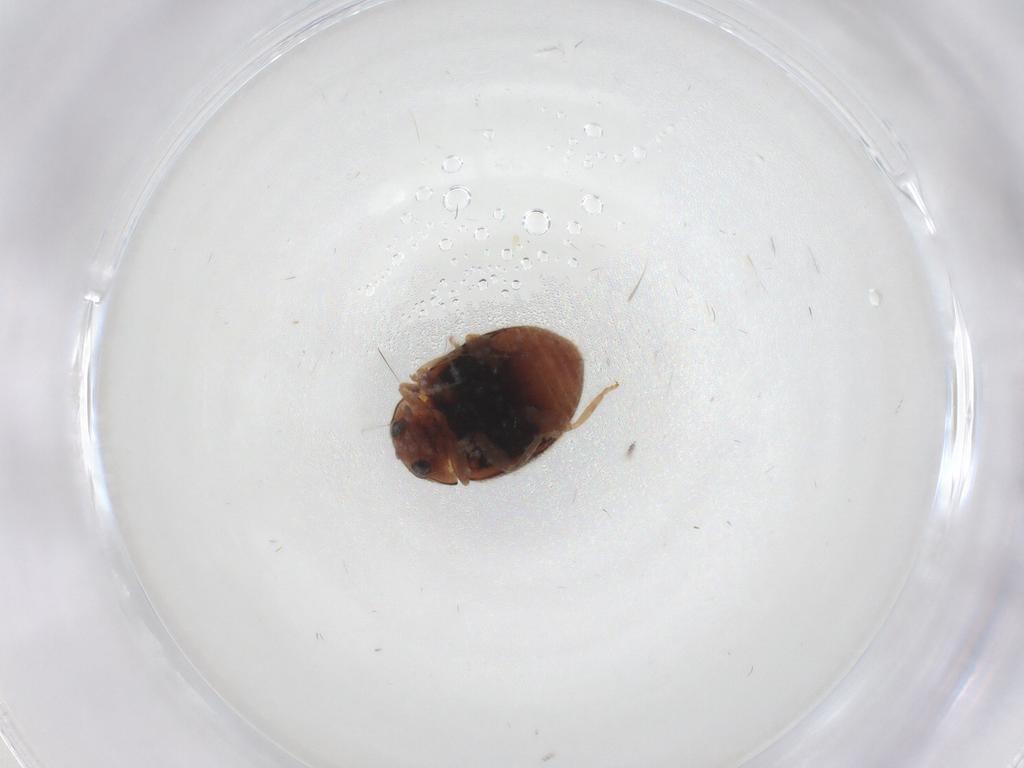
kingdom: Animalia
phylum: Arthropoda
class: Insecta
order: Coleoptera
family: Coccinellidae
